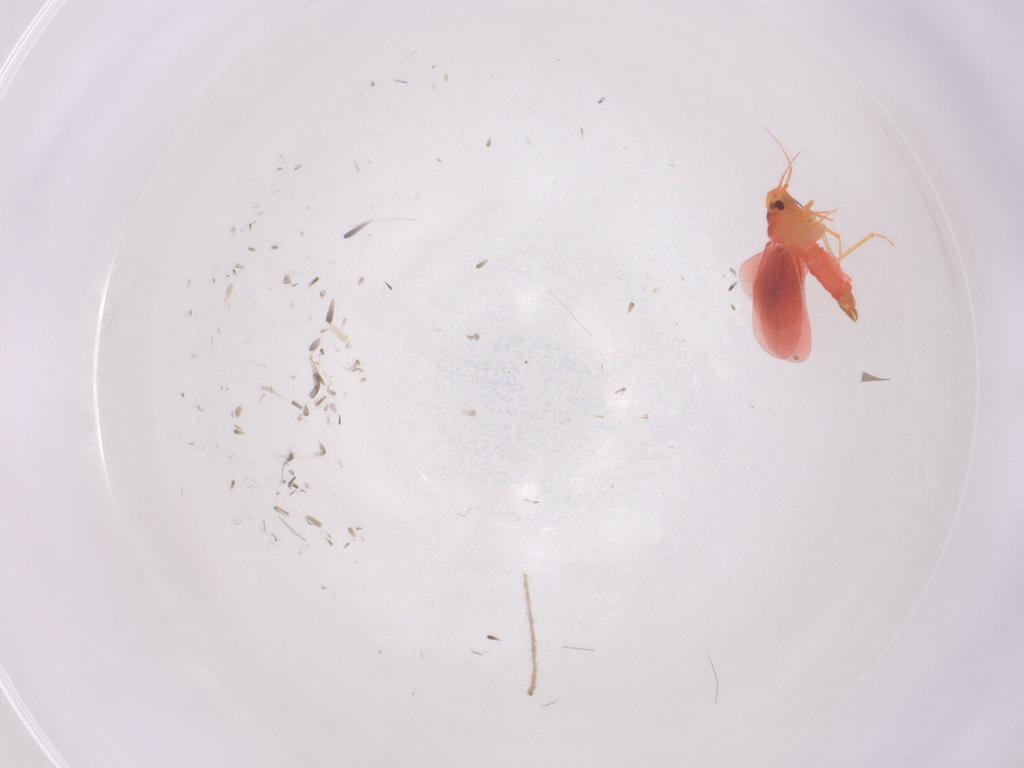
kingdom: Animalia
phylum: Arthropoda
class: Insecta
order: Hemiptera
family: Aleyrodidae
